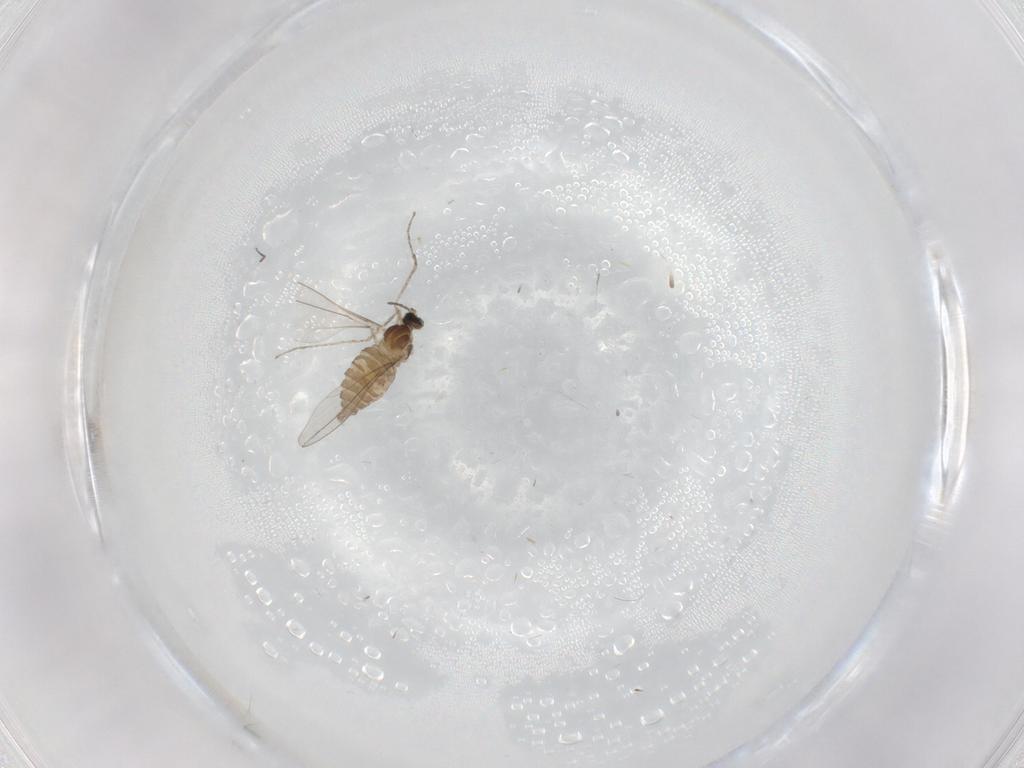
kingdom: Animalia
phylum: Arthropoda
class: Insecta
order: Diptera
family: Cecidomyiidae
